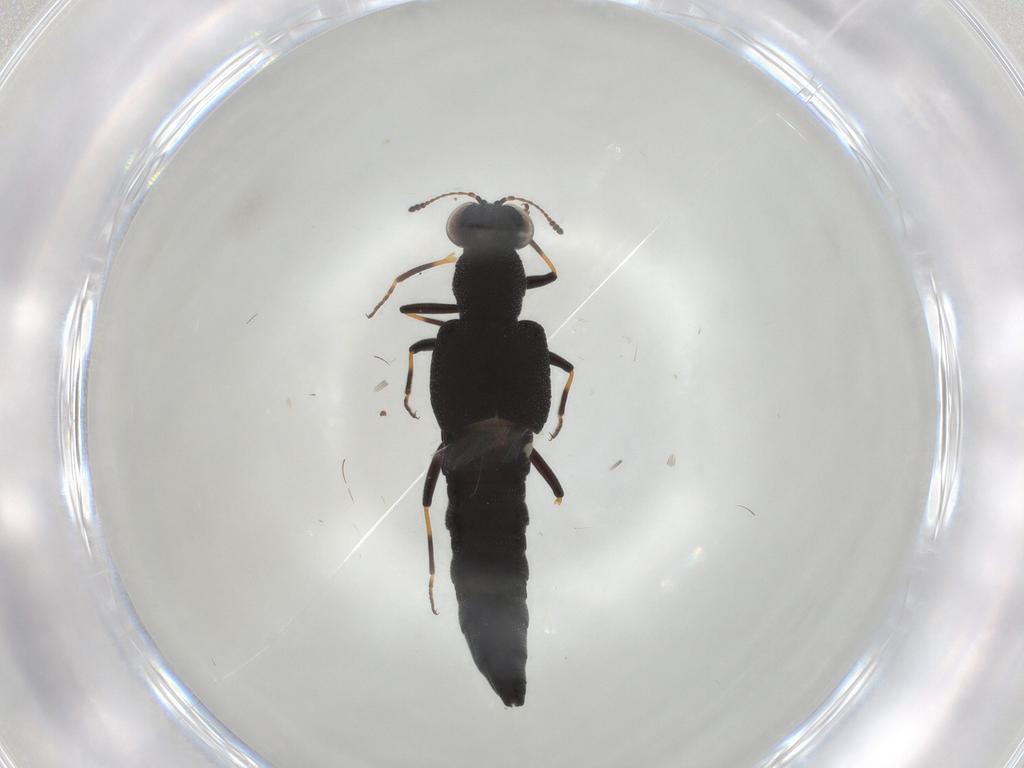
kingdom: Animalia
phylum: Arthropoda
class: Insecta
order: Coleoptera
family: Staphylinidae
